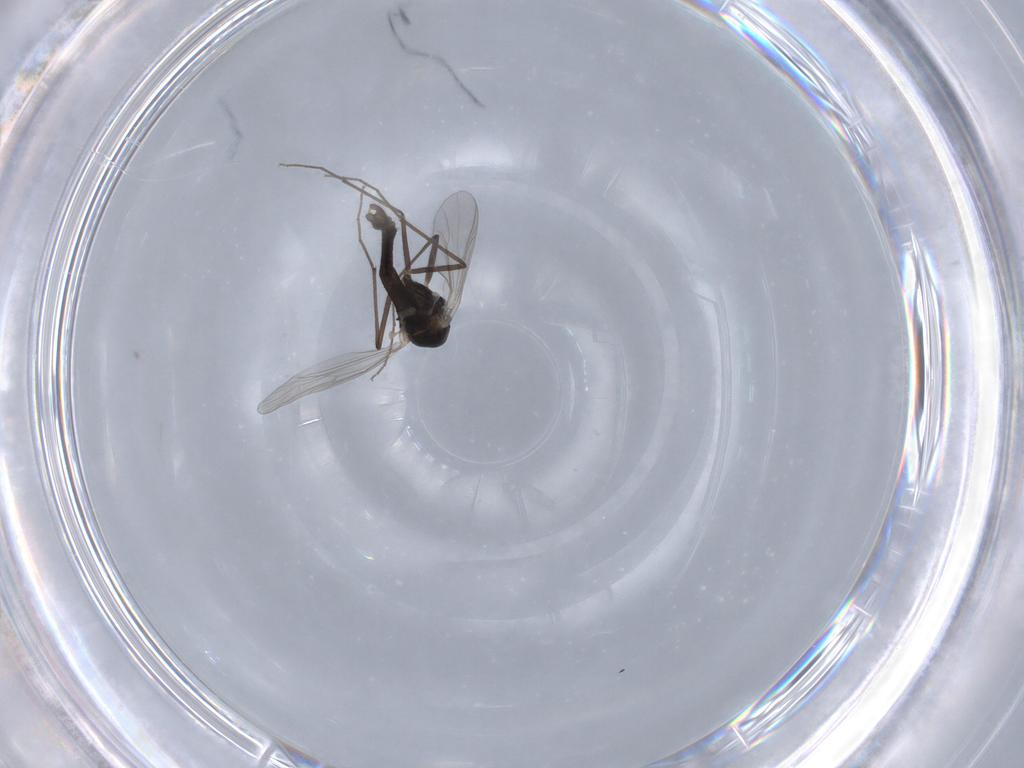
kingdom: Animalia
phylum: Arthropoda
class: Insecta
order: Diptera
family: Chironomidae
